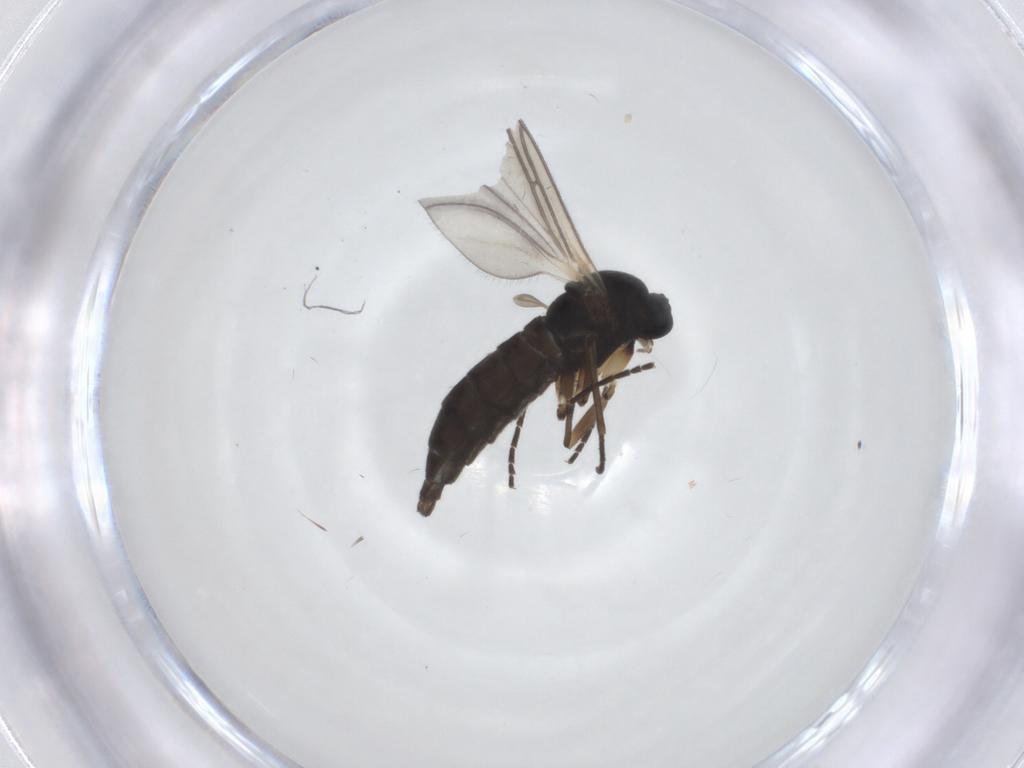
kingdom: Animalia
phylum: Arthropoda
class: Insecta
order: Diptera
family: Sciaridae
